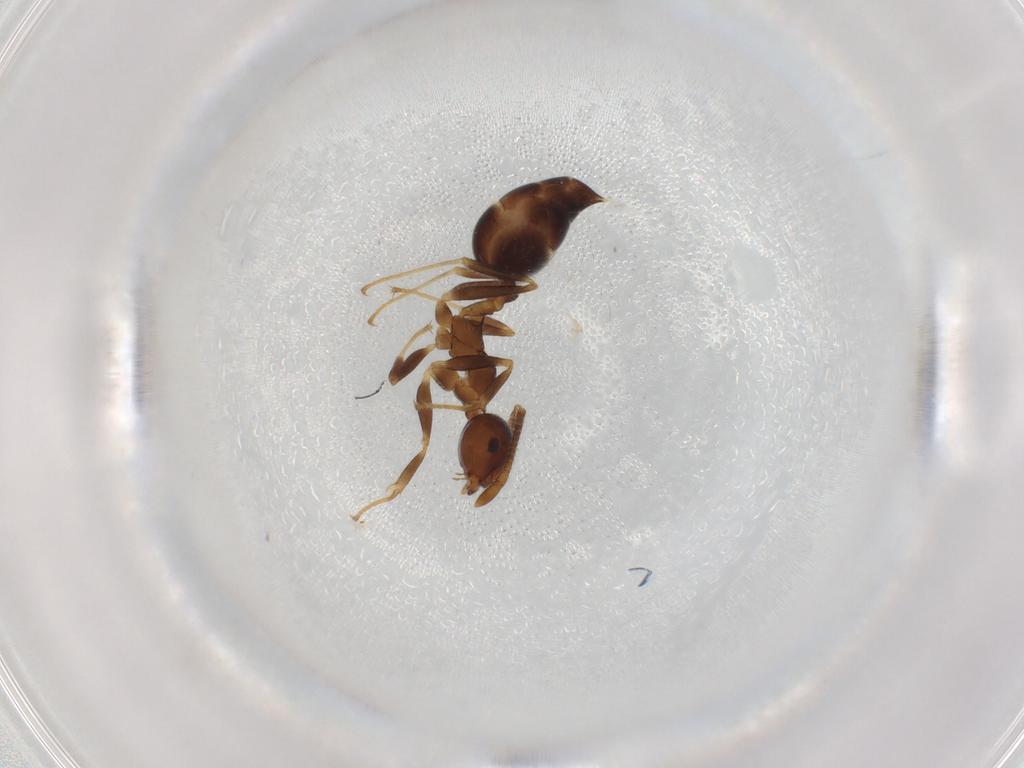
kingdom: Animalia
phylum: Arthropoda
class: Insecta
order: Hymenoptera
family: Formicidae
